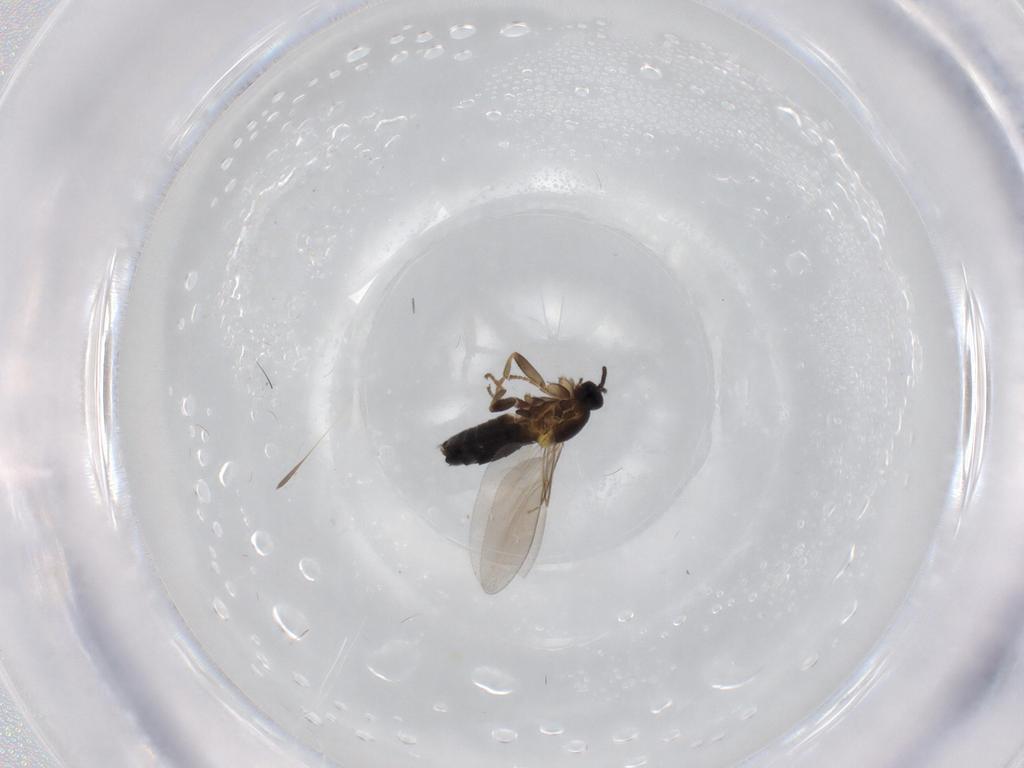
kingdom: Animalia
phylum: Arthropoda
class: Insecta
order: Diptera
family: Scatopsidae
